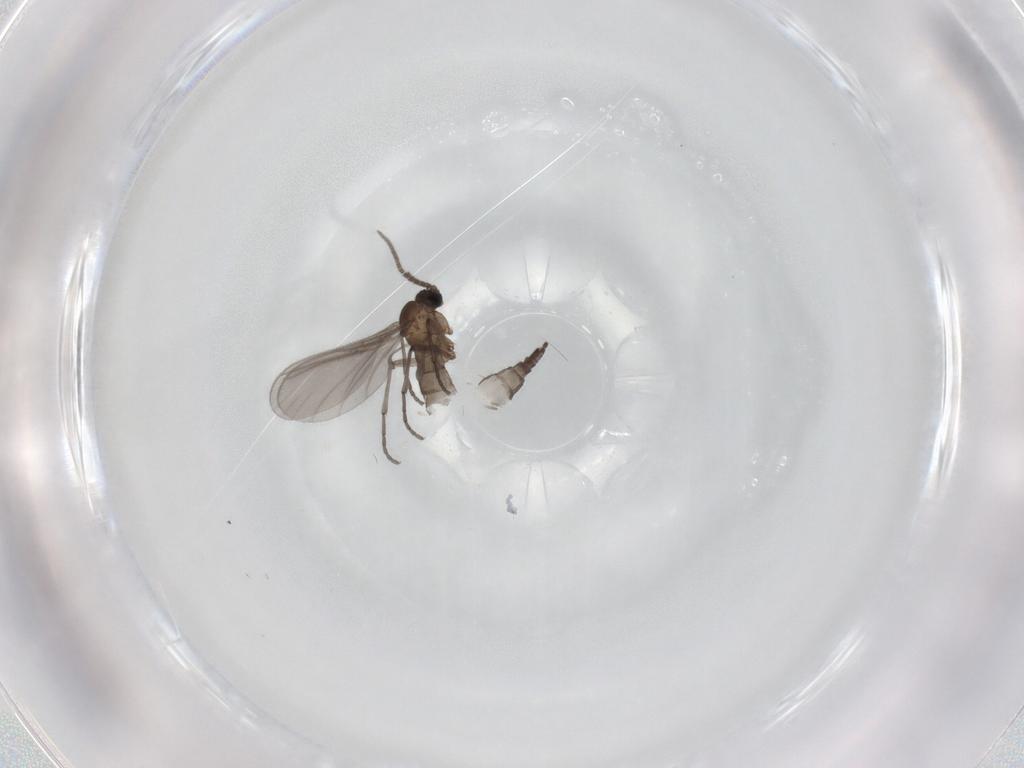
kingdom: Animalia
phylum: Arthropoda
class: Insecta
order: Diptera
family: Sciaridae
